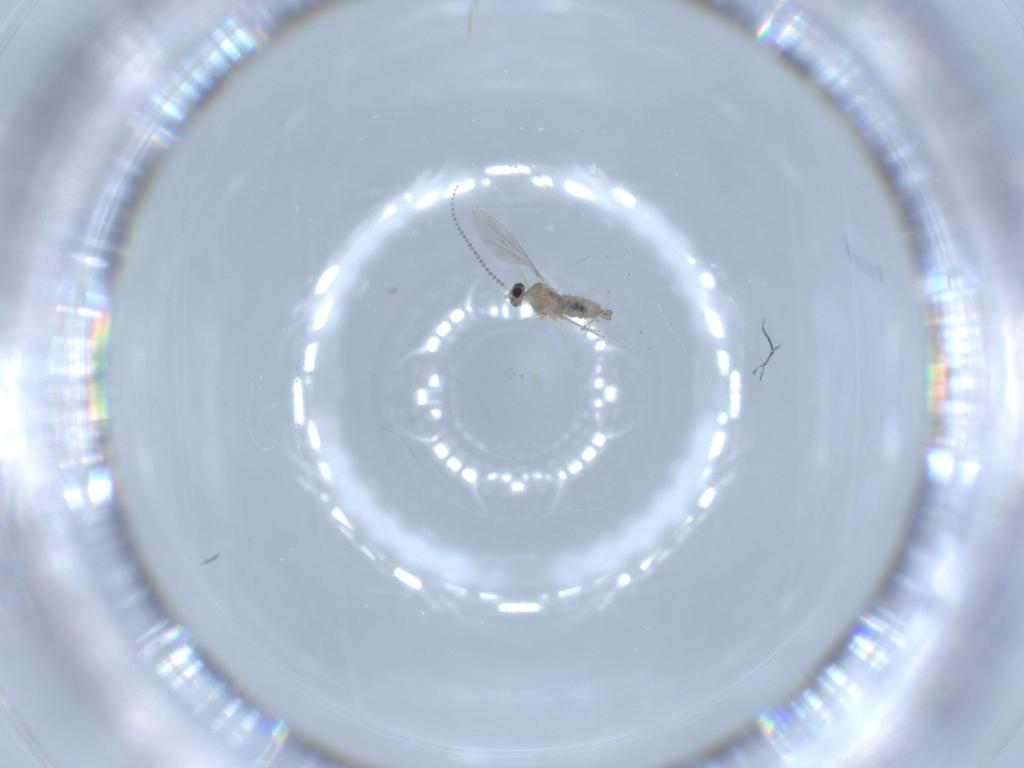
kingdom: Animalia
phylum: Arthropoda
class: Insecta
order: Diptera
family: Cecidomyiidae
